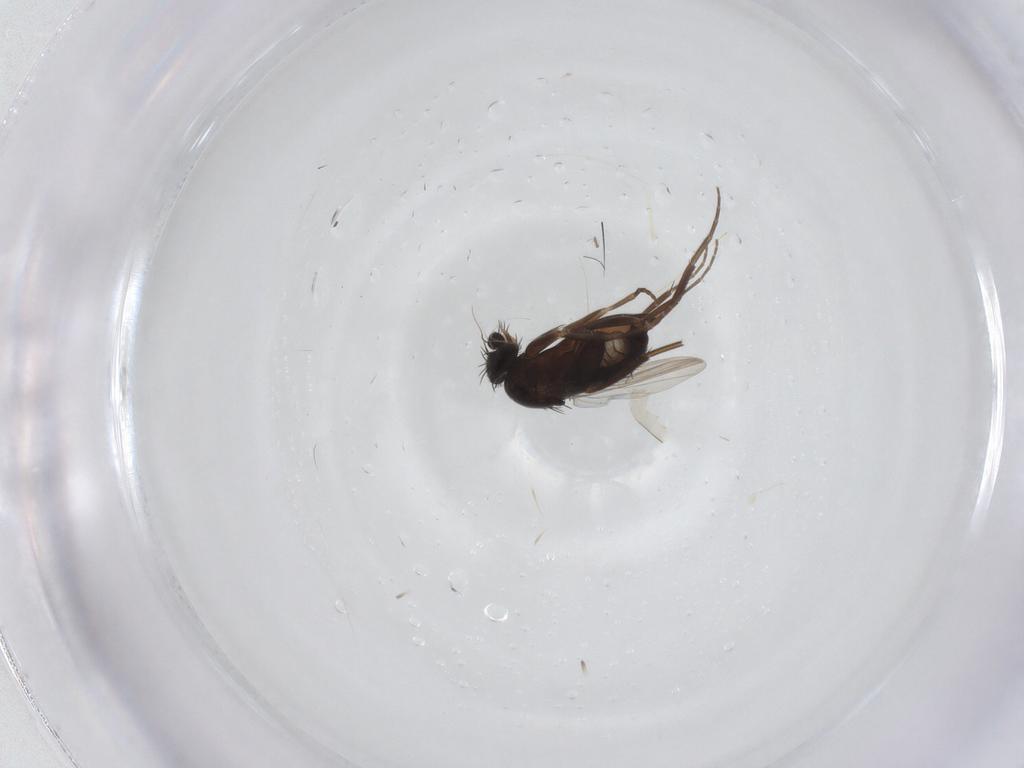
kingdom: Animalia
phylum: Arthropoda
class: Insecta
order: Diptera
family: Phoridae
